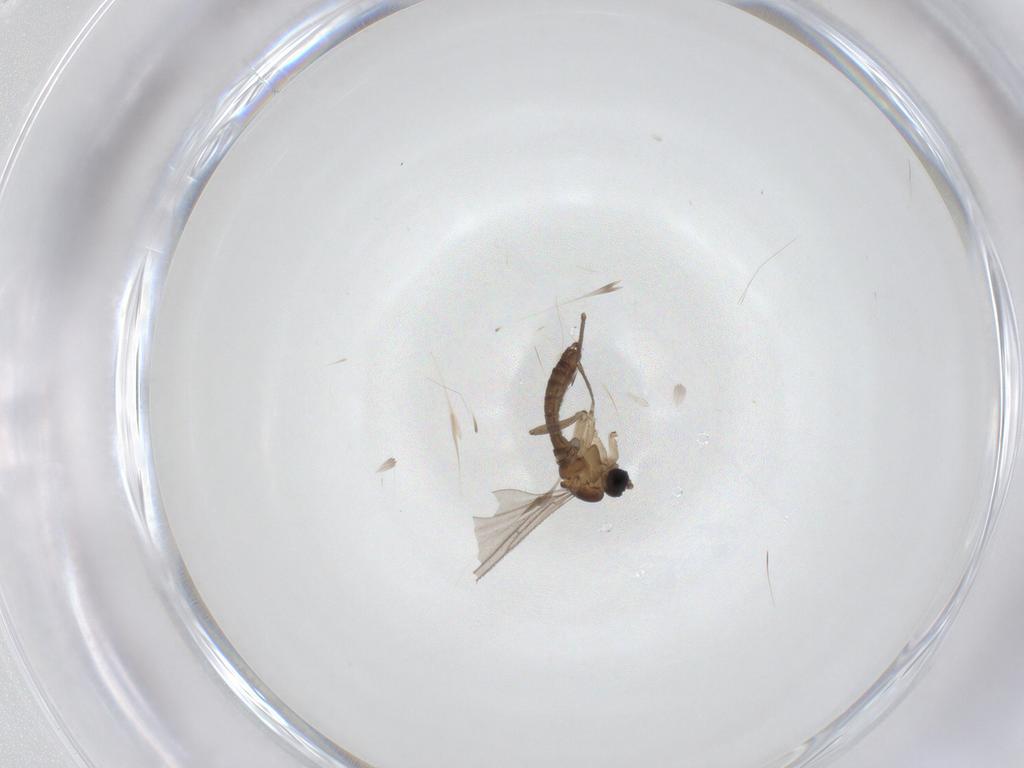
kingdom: Animalia
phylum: Arthropoda
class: Insecta
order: Diptera
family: Sciaridae
